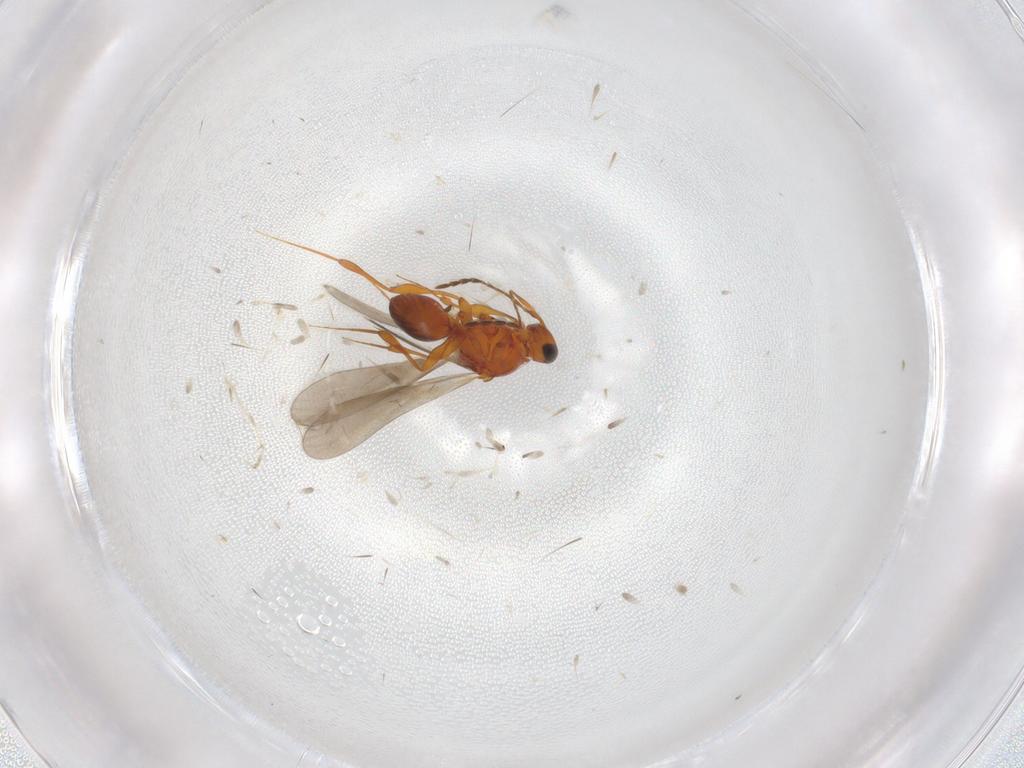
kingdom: Animalia
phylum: Arthropoda
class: Insecta
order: Hymenoptera
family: Platygastridae
